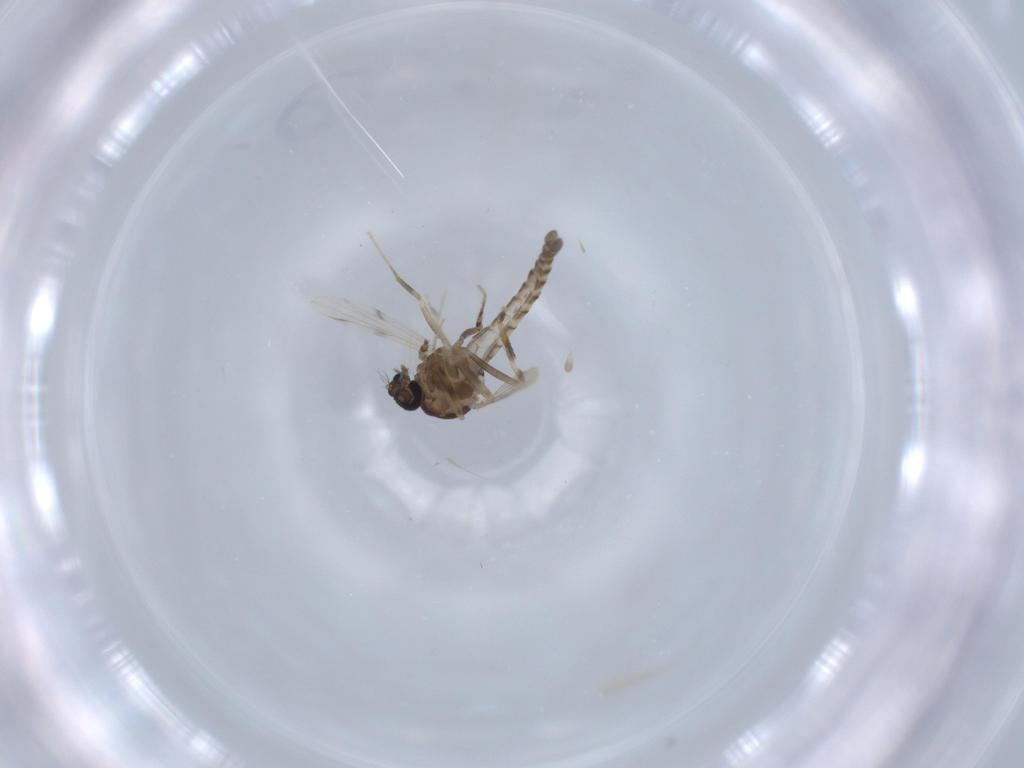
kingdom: Animalia
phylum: Arthropoda
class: Insecta
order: Diptera
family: Ceratopogonidae
